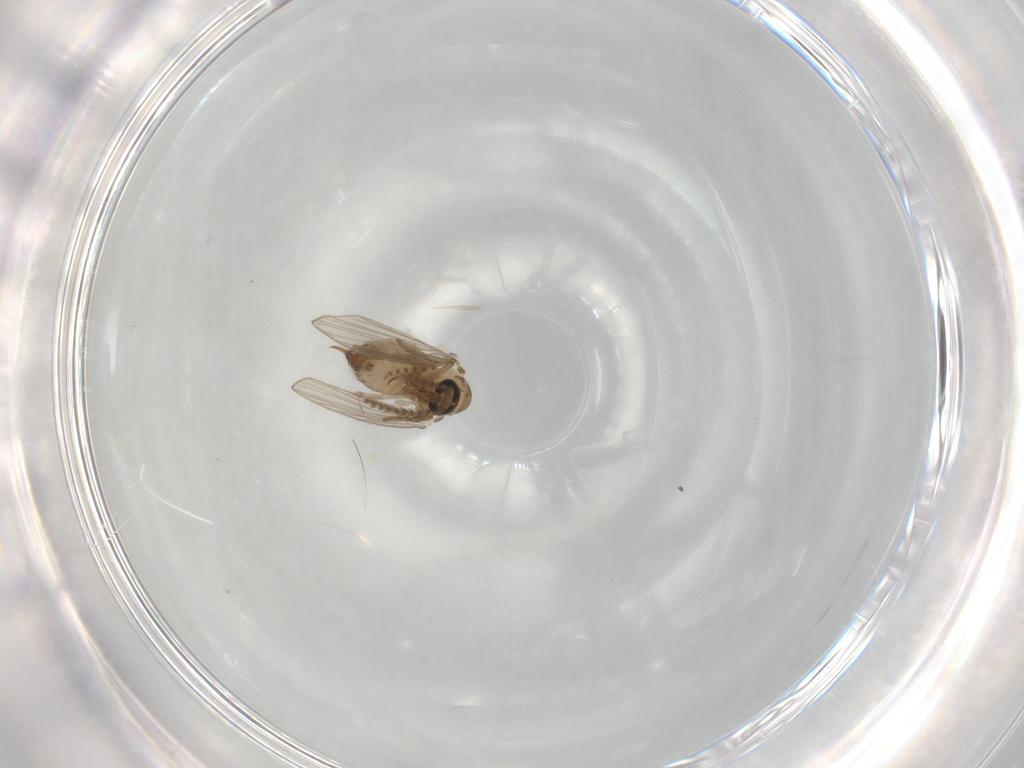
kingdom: Animalia
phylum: Arthropoda
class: Insecta
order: Diptera
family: Psychodidae
